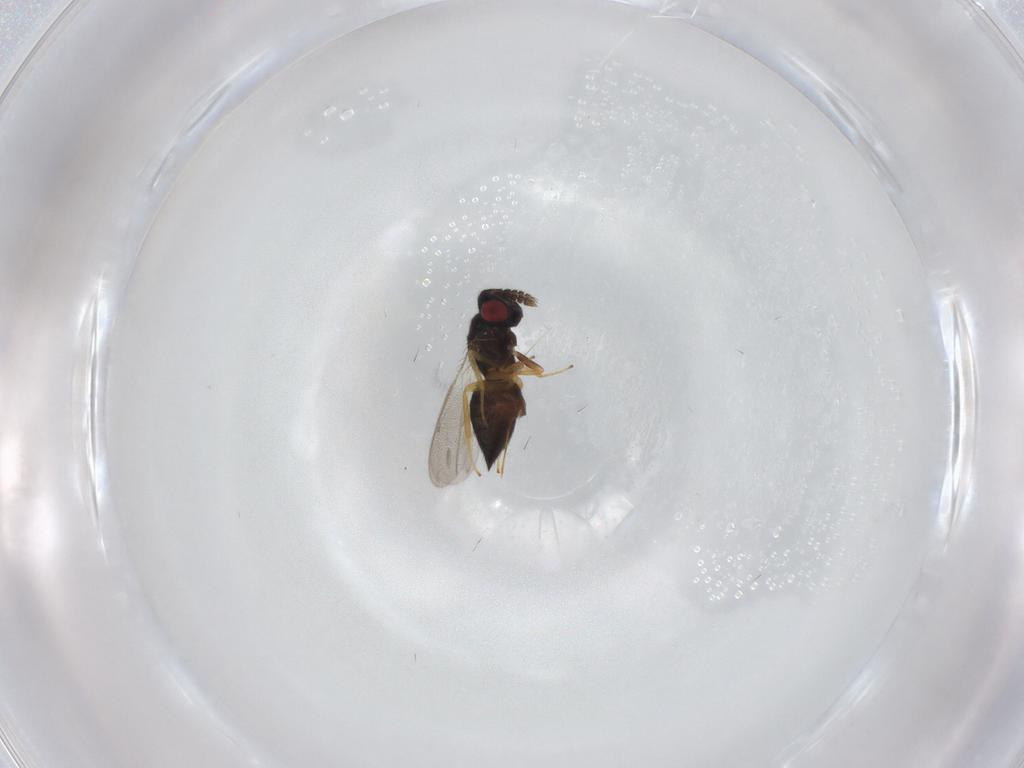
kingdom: Animalia
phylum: Arthropoda
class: Insecta
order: Hymenoptera
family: Eulophidae
